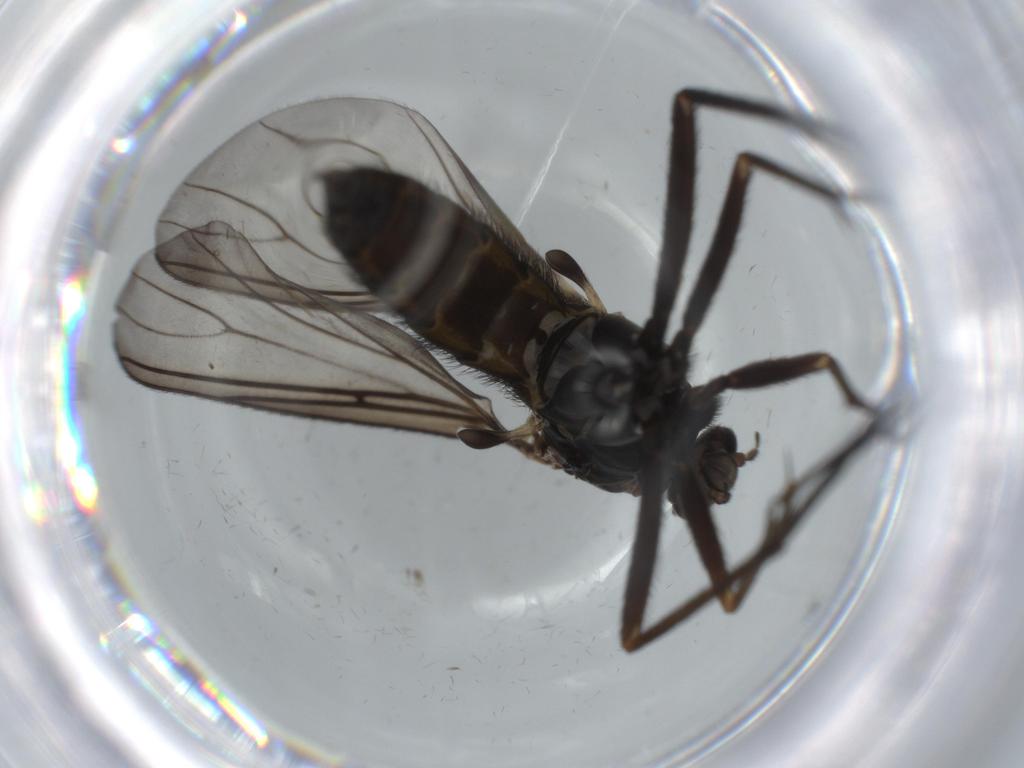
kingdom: Animalia
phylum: Arthropoda
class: Insecta
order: Diptera
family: Sciaridae
